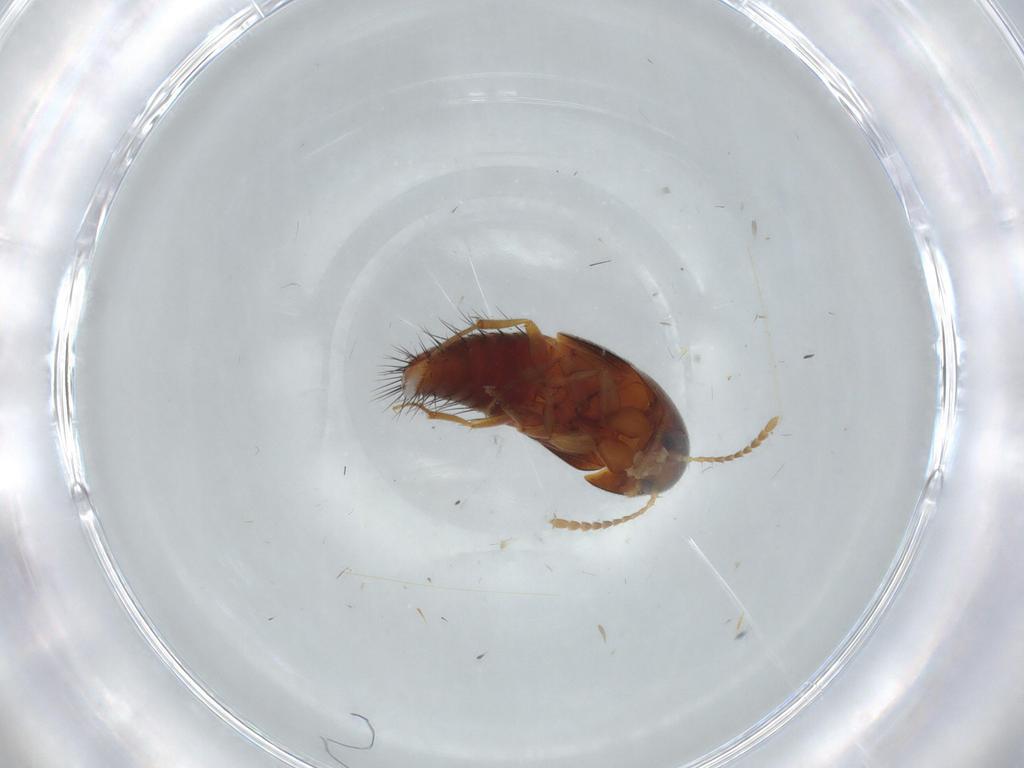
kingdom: Animalia
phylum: Arthropoda
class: Insecta
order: Coleoptera
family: Staphylinidae
